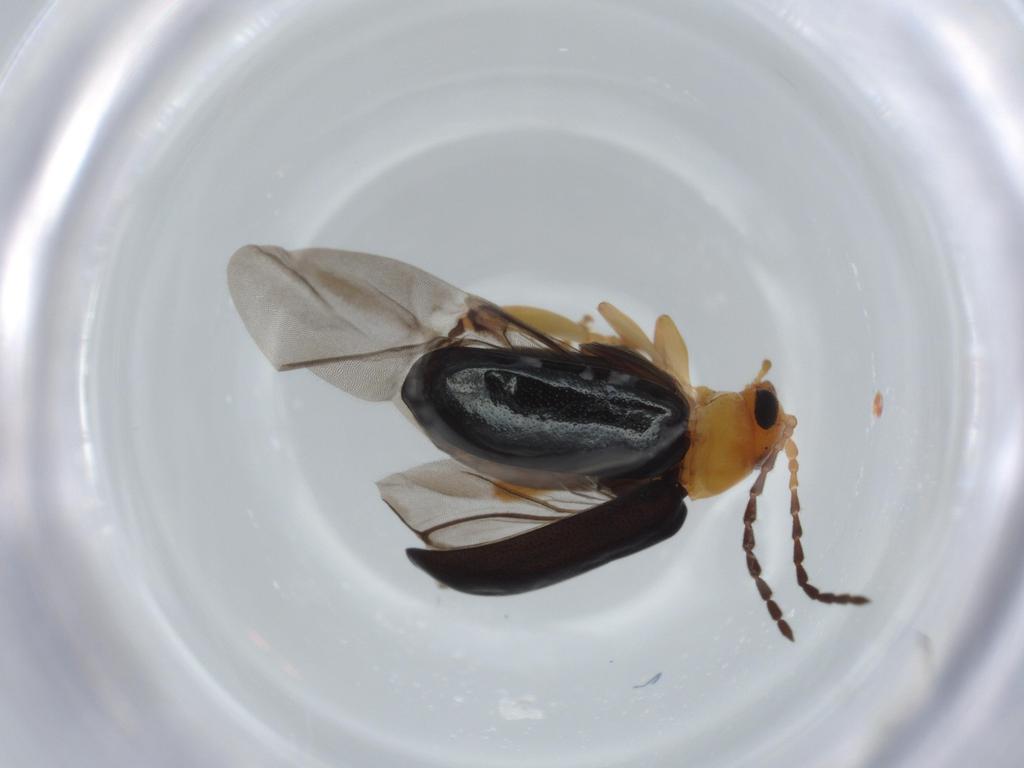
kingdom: Animalia
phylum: Arthropoda
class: Insecta
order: Coleoptera
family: Chrysomelidae
